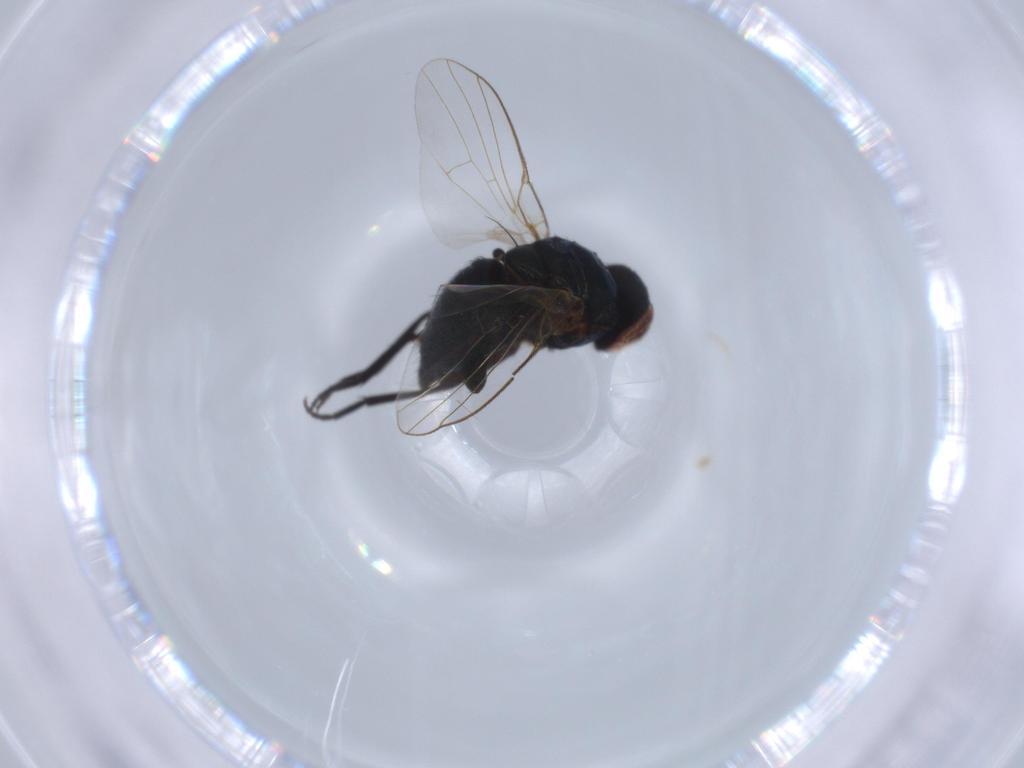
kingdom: Animalia
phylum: Arthropoda
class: Insecta
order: Diptera
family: Agromyzidae
